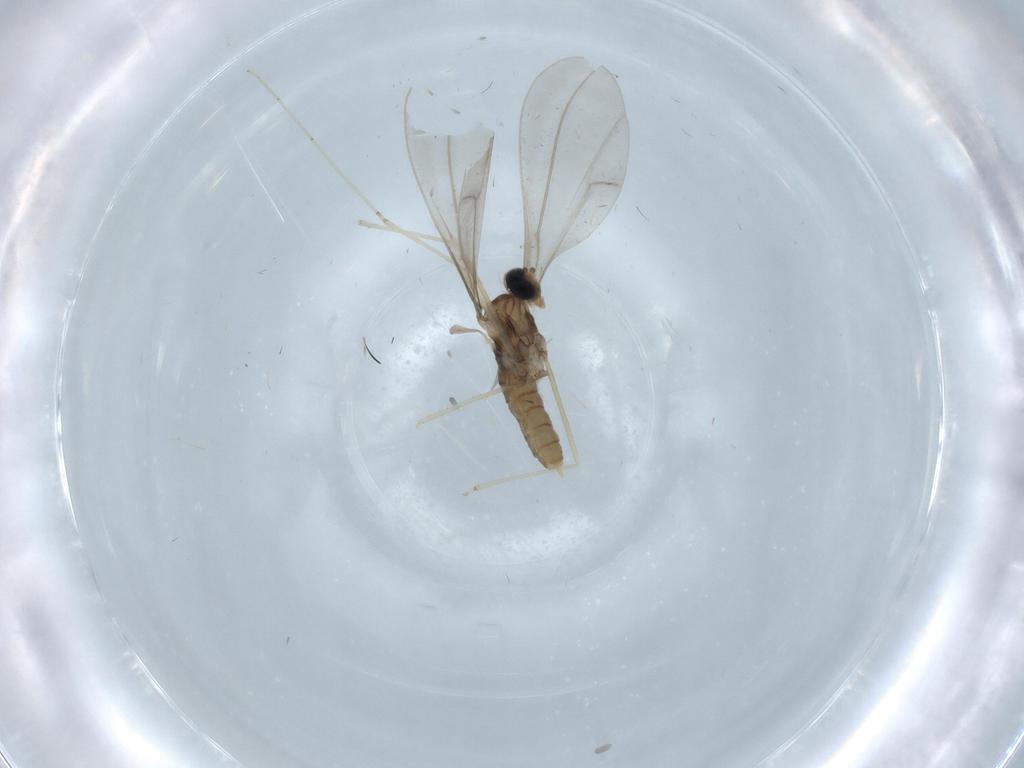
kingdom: Animalia
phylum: Arthropoda
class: Insecta
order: Diptera
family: Cecidomyiidae
